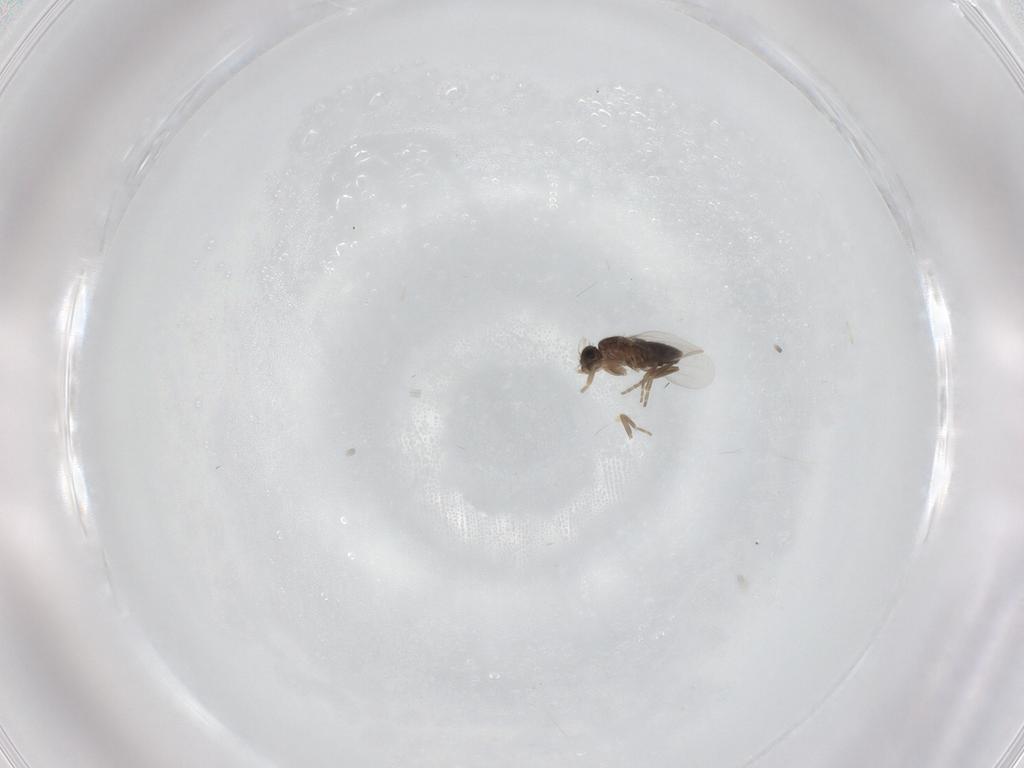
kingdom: Animalia
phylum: Arthropoda
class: Insecta
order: Diptera
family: Phoridae
